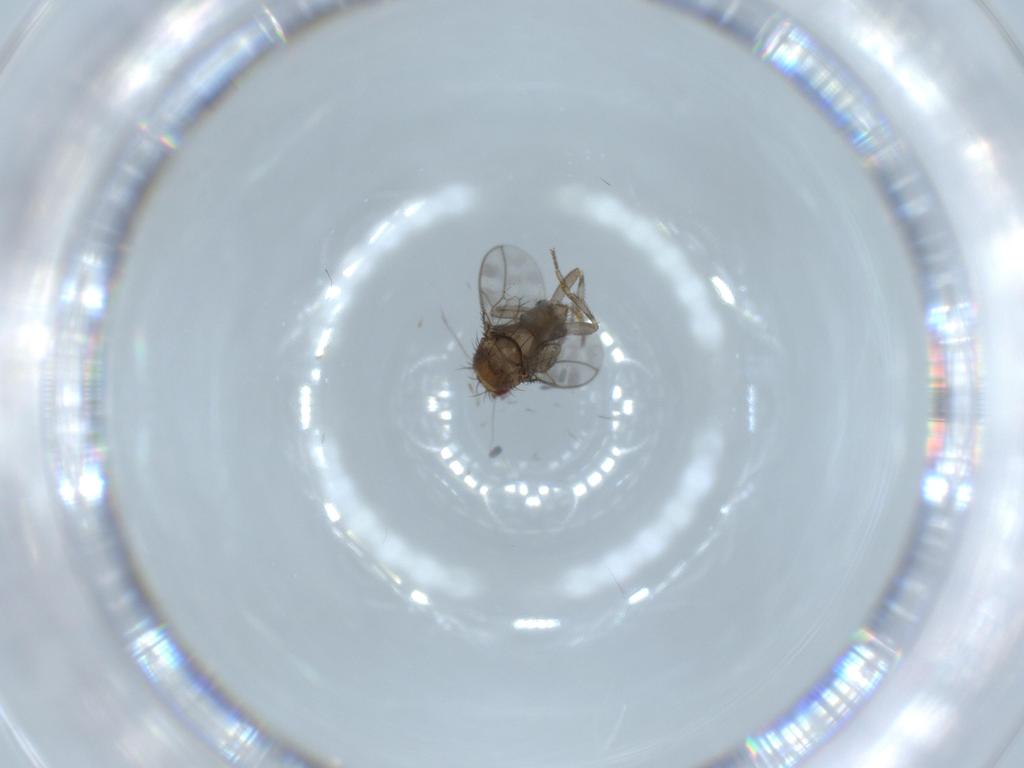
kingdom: Animalia
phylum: Arthropoda
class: Insecta
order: Diptera
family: Sphaeroceridae
